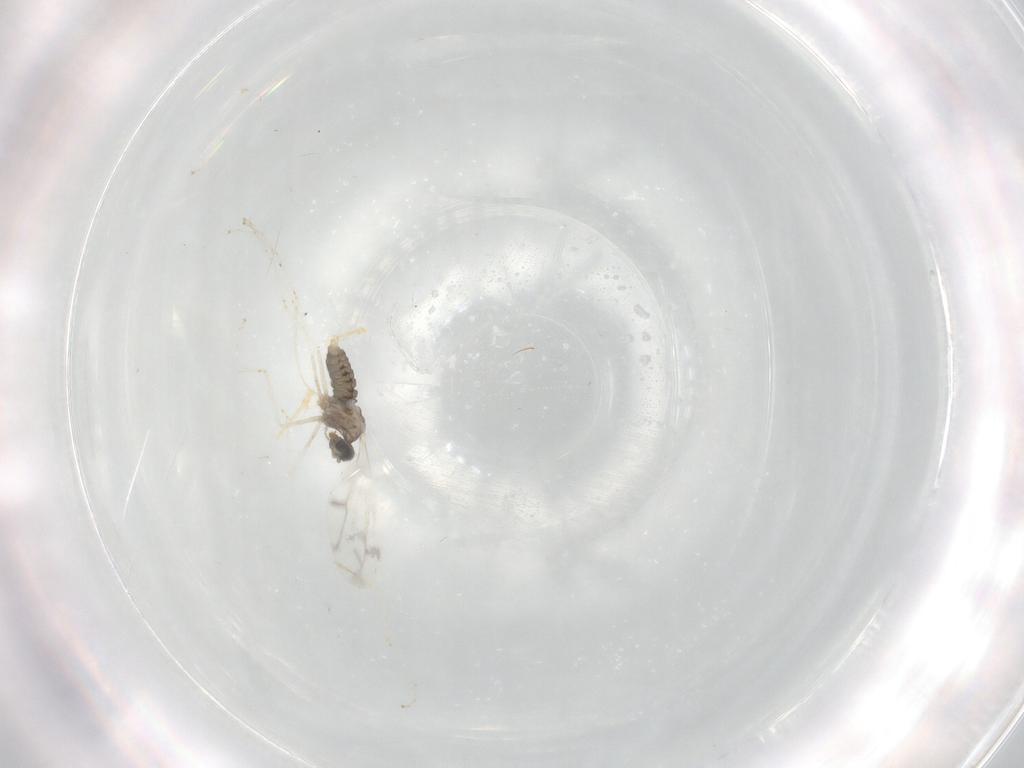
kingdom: Animalia
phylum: Arthropoda
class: Insecta
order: Diptera
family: Cecidomyiidae
